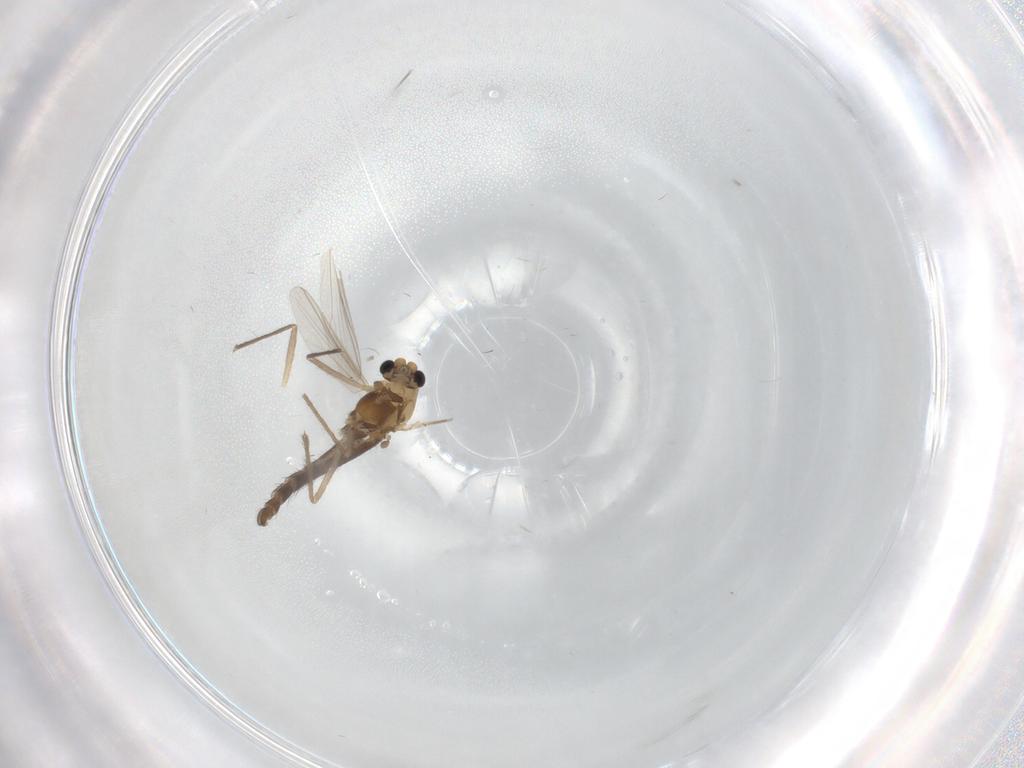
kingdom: Animalia
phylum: Arthropoda
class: Insecta
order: Diptera
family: Chironomidae
